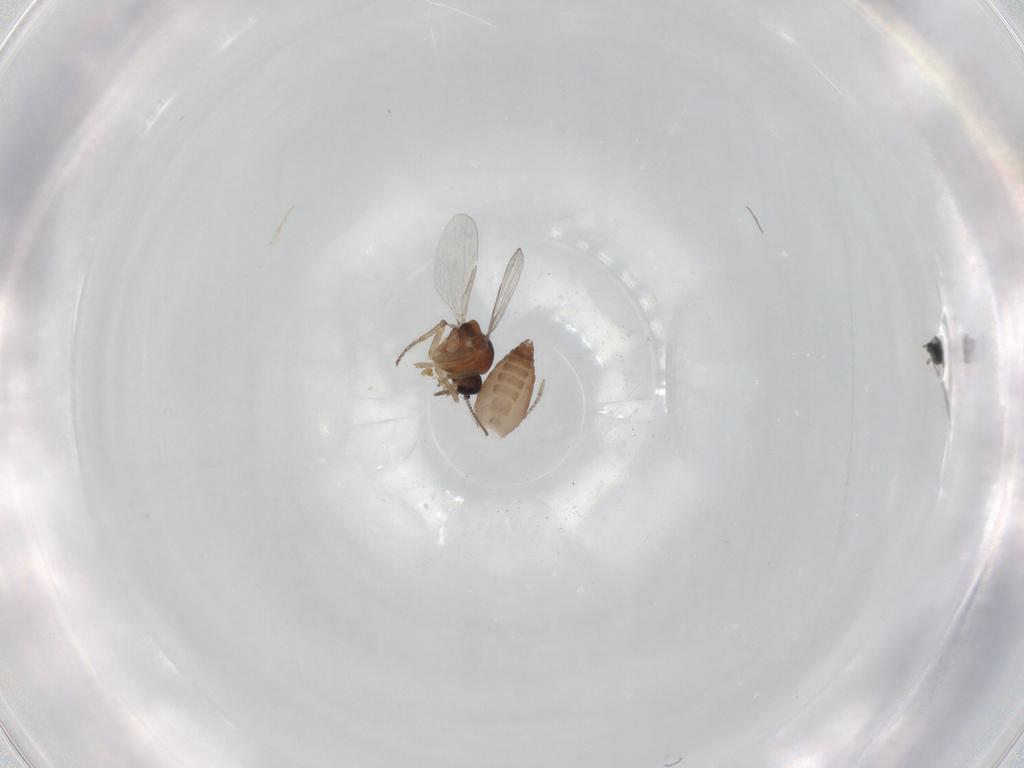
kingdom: Animalia
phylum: Arthropoda
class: Insecta
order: Diptera
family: Ceratopogonidae
